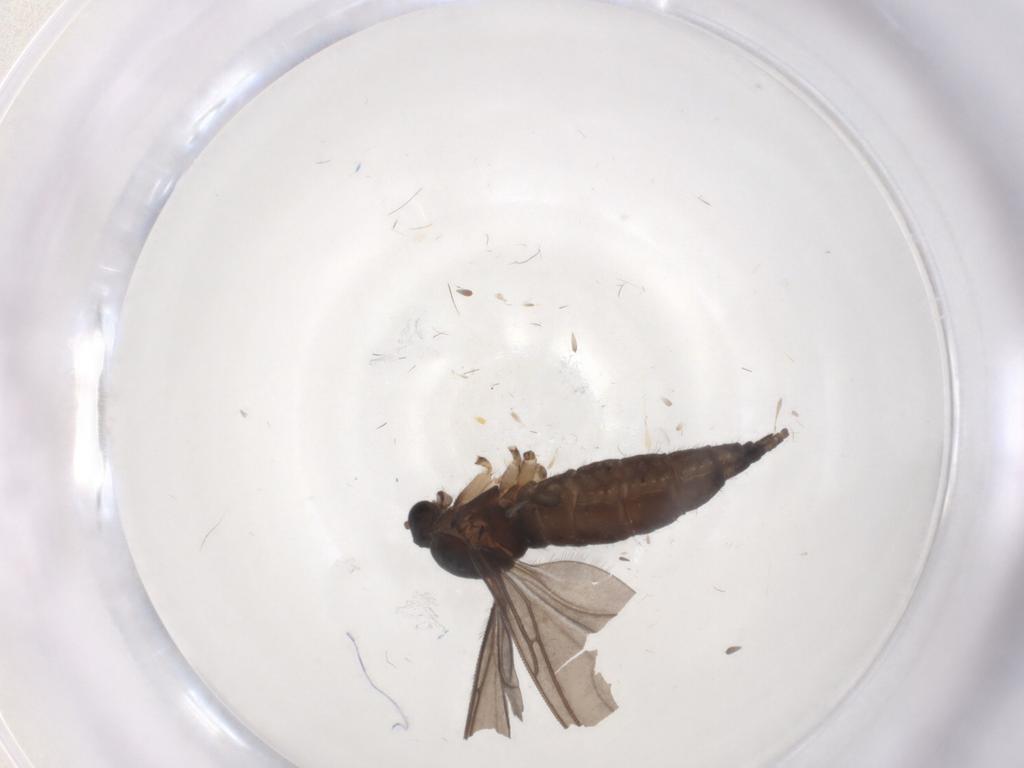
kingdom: Animalia
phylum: Arthropoda
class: Insecta
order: Diptera
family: Sciaridae
